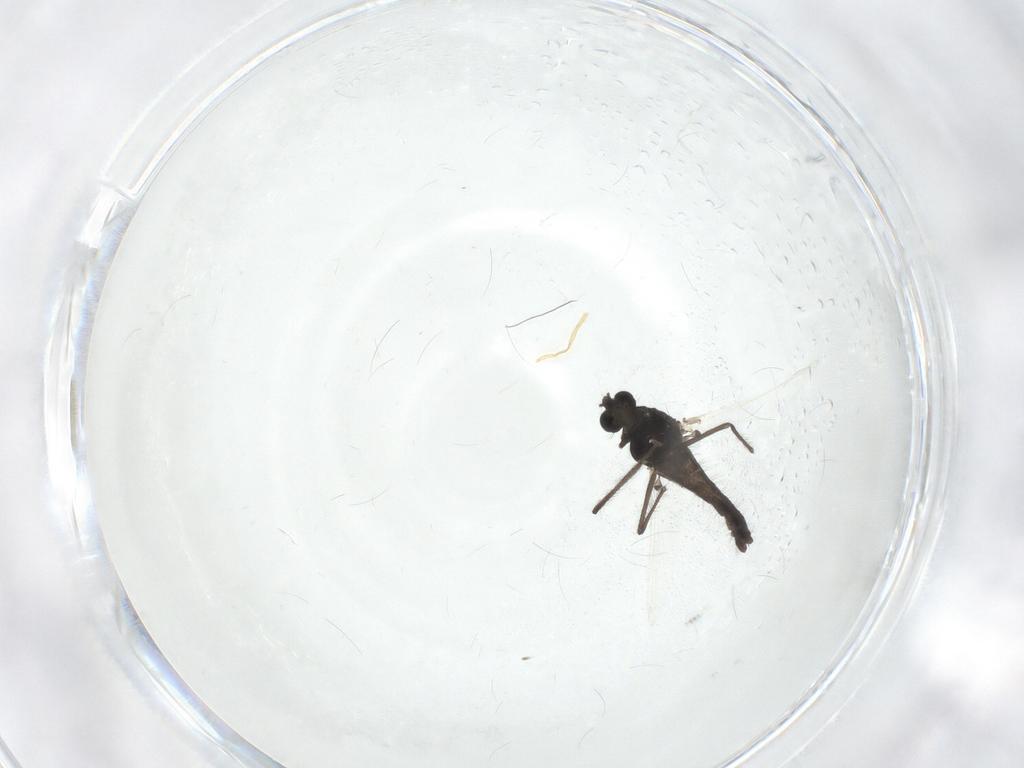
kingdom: Animalia
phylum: Arthropoda
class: Insecta
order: Diptera
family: Chironomidae
